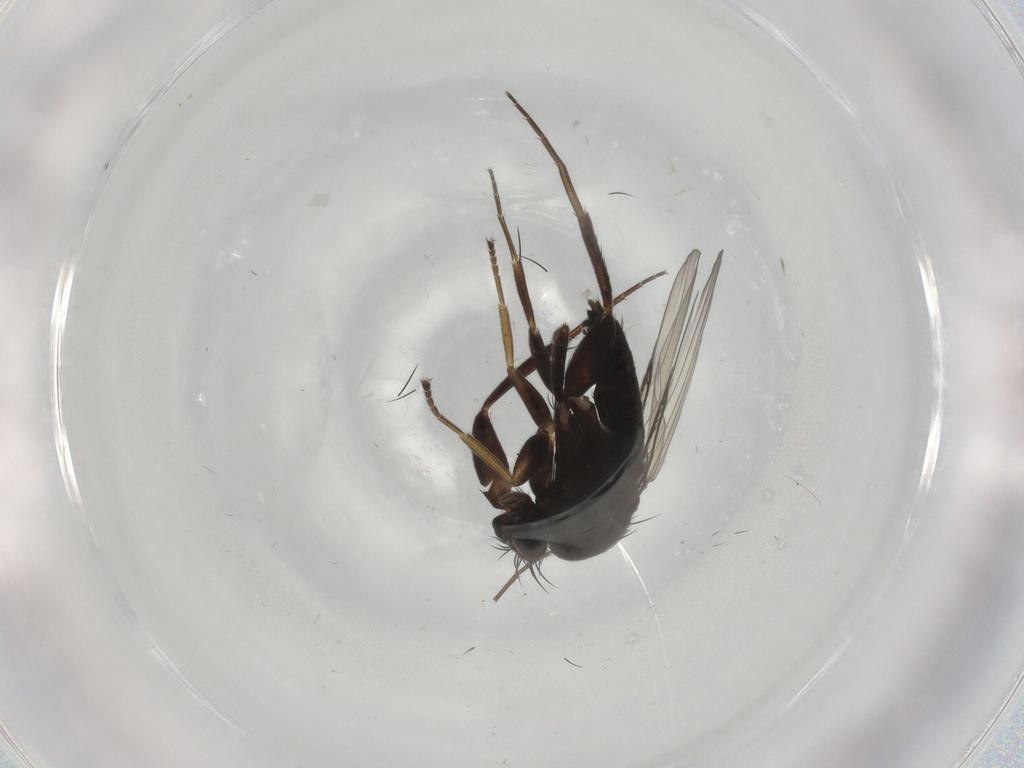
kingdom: Animalia
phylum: Arthropoda
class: Insecta
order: Diptera
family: Phoridae
